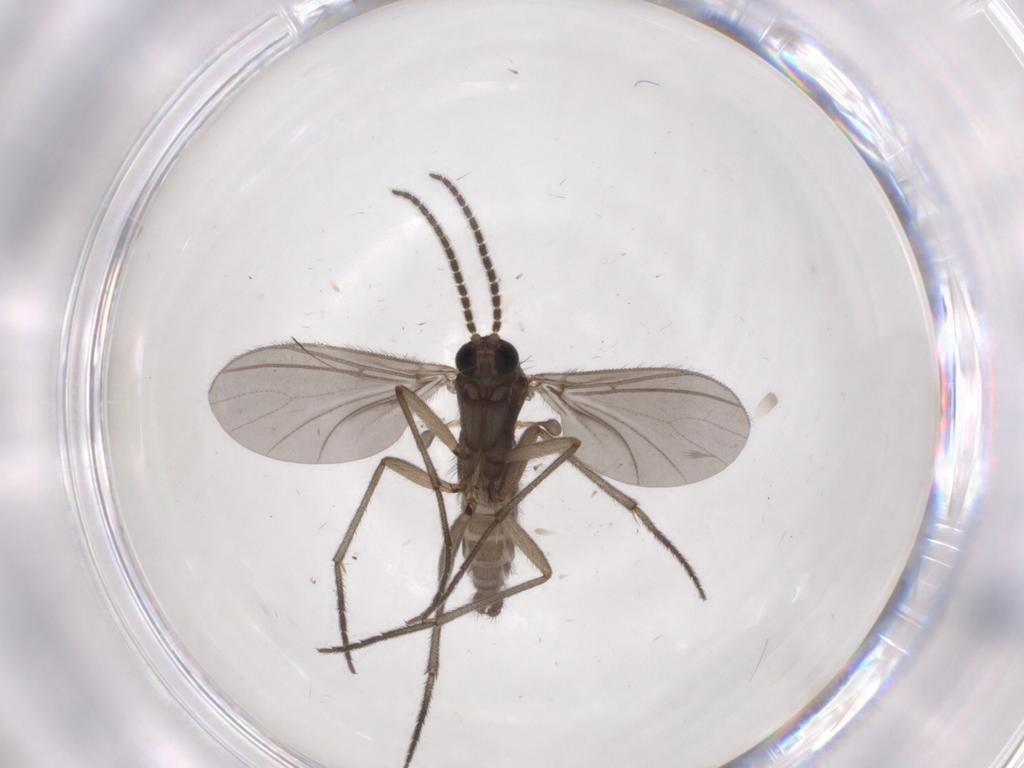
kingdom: Animalia
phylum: Arthropoda
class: Insecta
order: Diptera
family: Sciaridae
